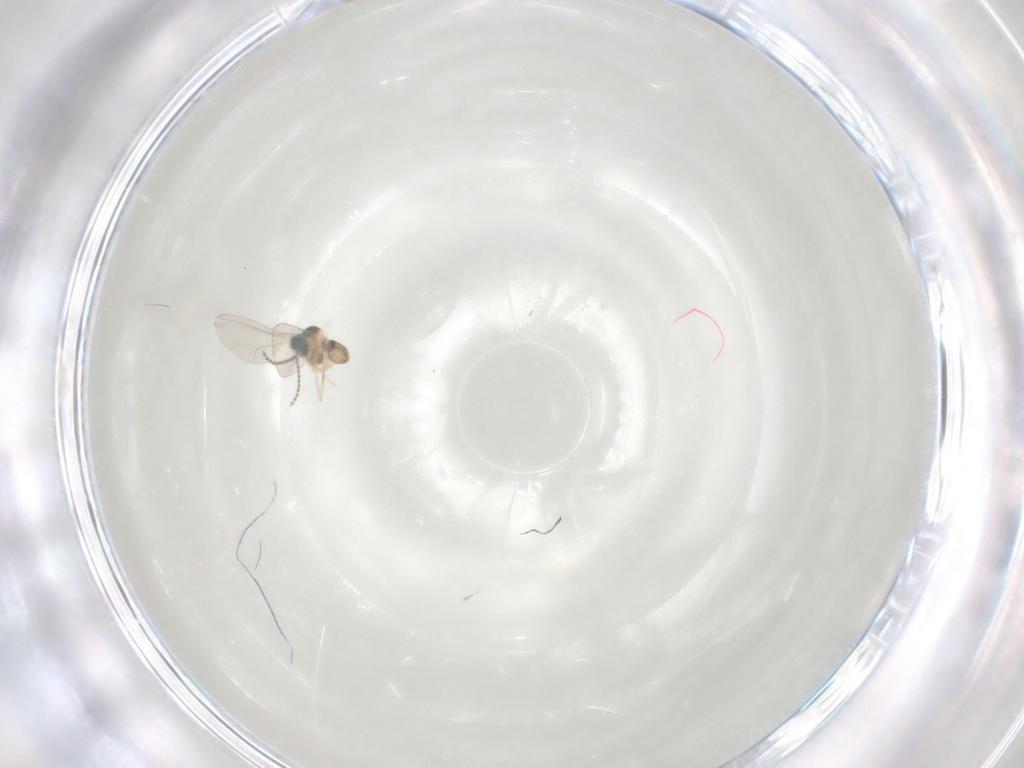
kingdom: Animalia
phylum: Arthropoda
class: Insecta
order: Diptera
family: Cecidomyiidae
